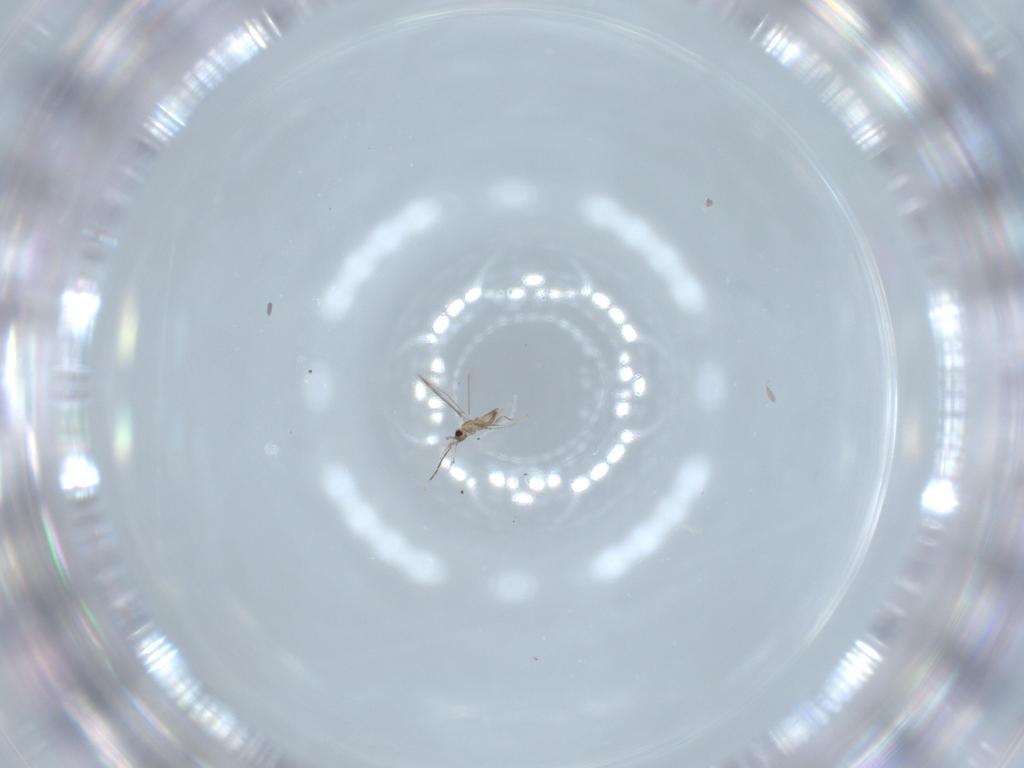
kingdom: Animalia
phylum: Arthropoda
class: Insecta
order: Hymenoptera
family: Mymaridae
